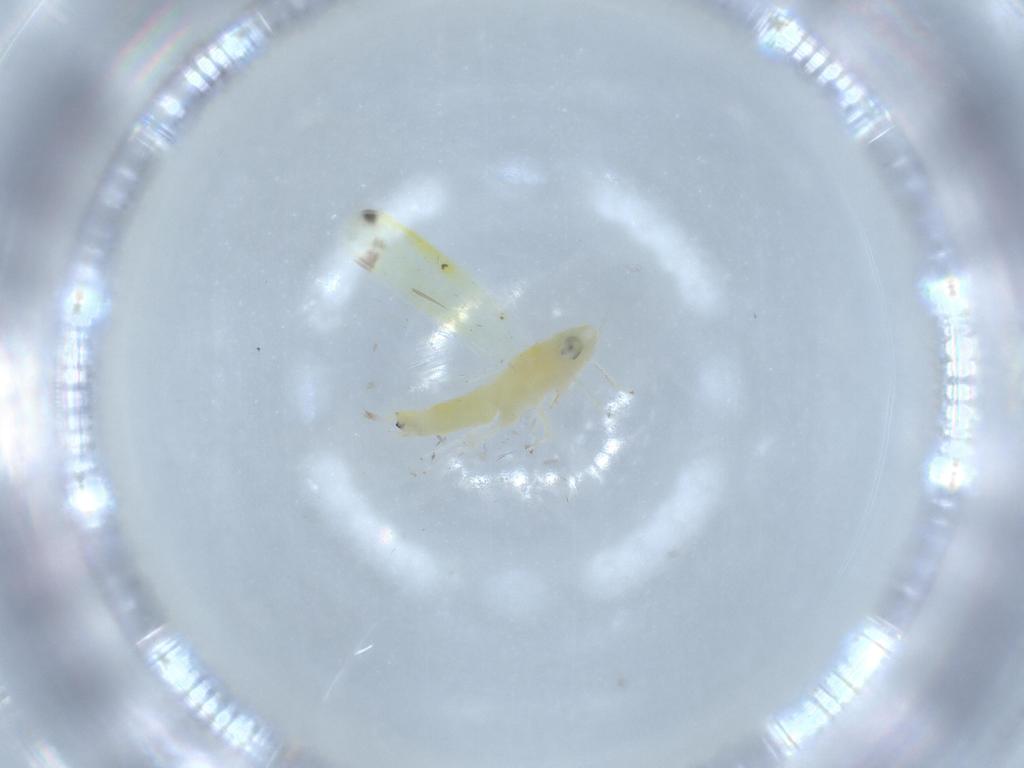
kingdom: Animalia
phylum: Arthropoda
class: Insecta
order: Hemiptera
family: Cicadellidae
